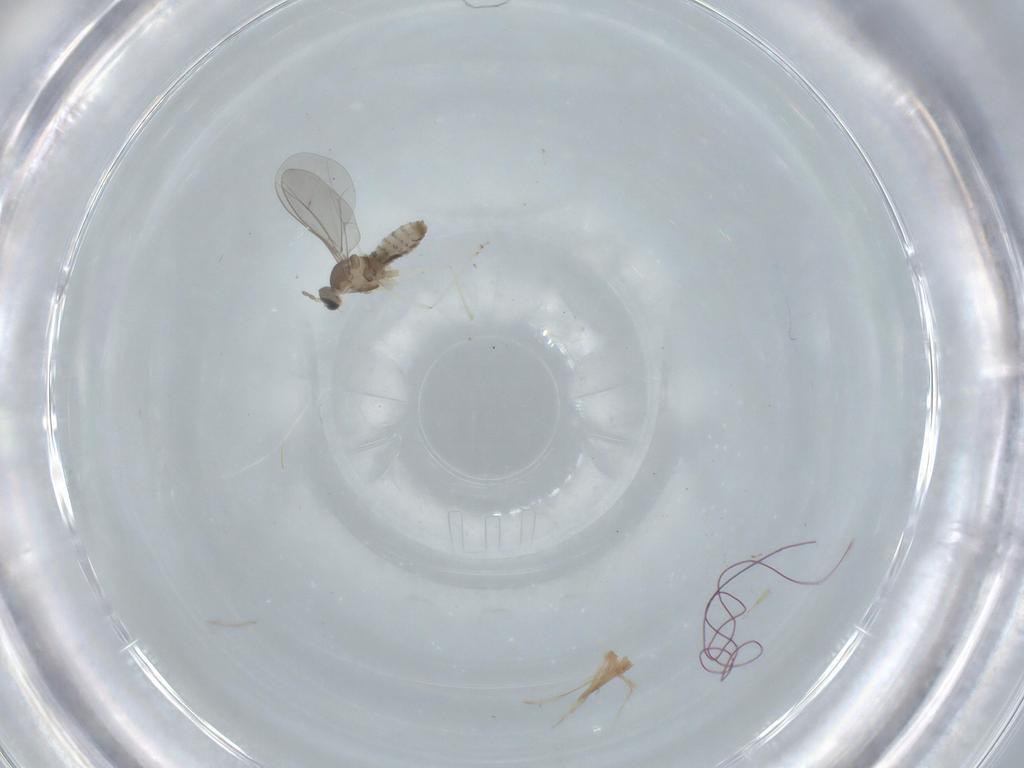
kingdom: Animalia
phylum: Arthropoda
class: Insecta
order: Diptera
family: Cecidomyiidae
